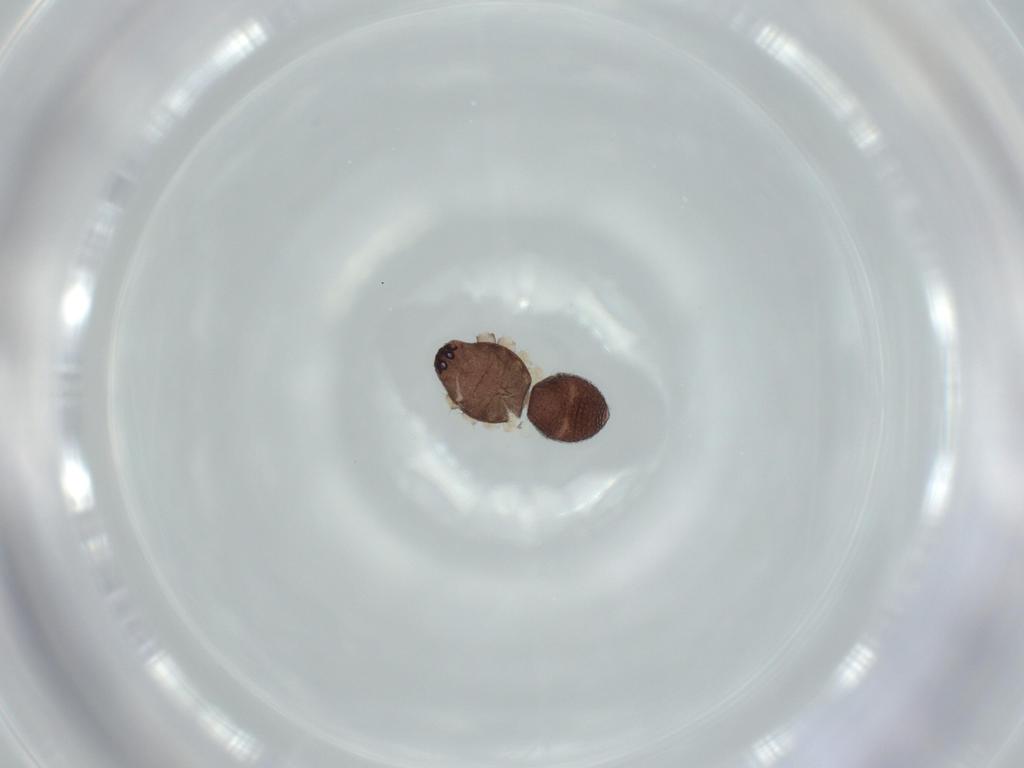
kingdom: Animalia
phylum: Arthropoda
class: Arachnida
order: Araneae
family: Corinnidae
